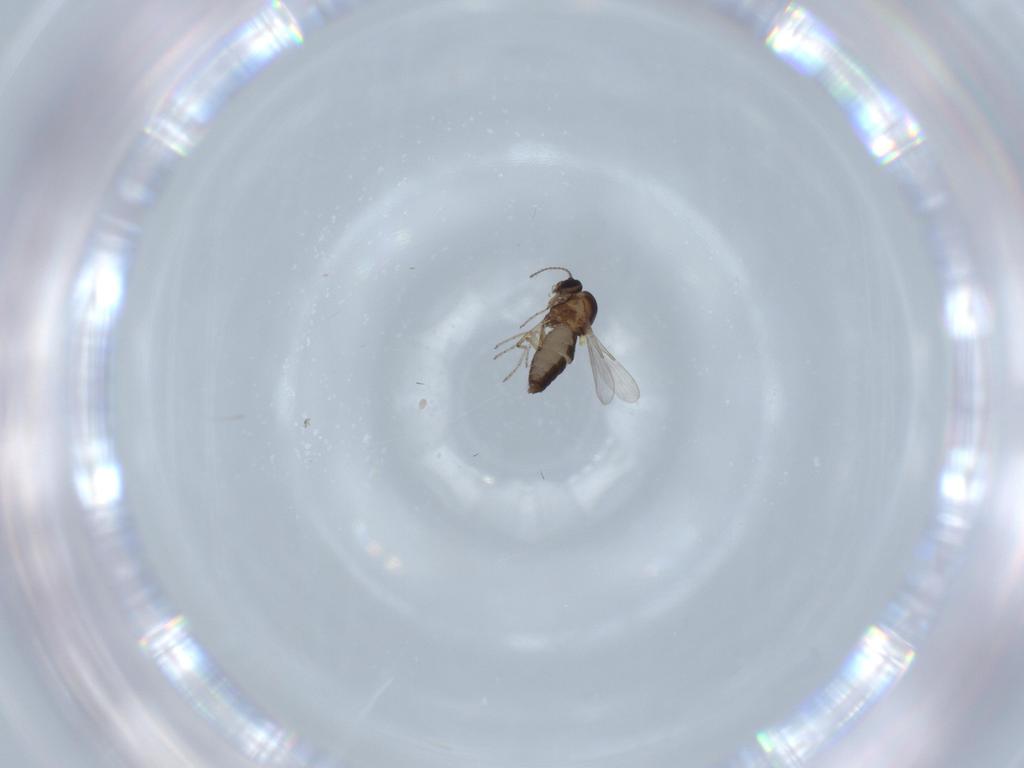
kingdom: Animalia
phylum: Arthropoda
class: Insecta
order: Diptera
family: Ceratopogonidae
